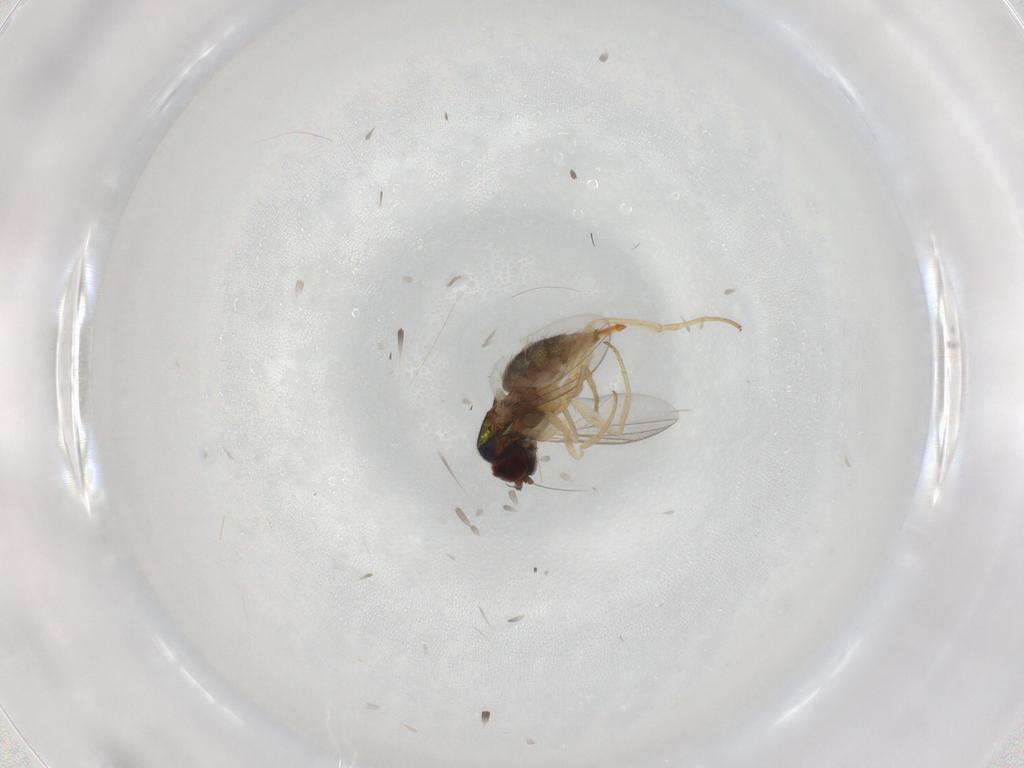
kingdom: Animalia
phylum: Arthropoda
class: Insecta
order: Diptera
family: Dolichopodidae
